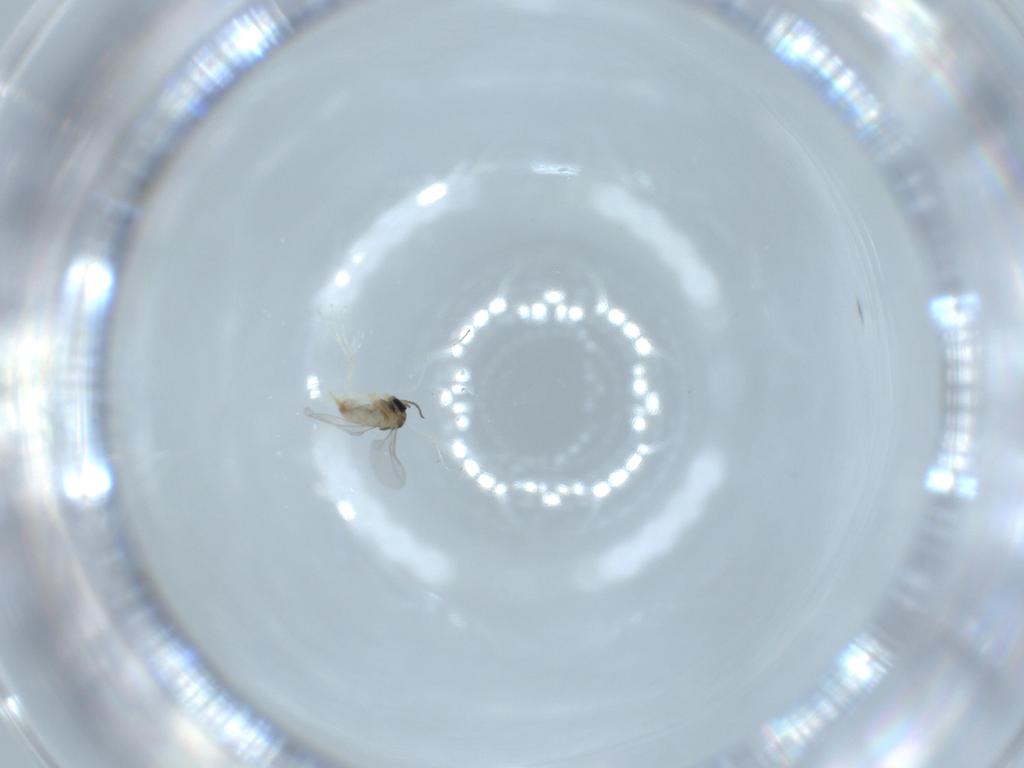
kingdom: Animalia
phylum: Arthropoda
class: Insecta
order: Diptera
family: Cecidomyiidae
